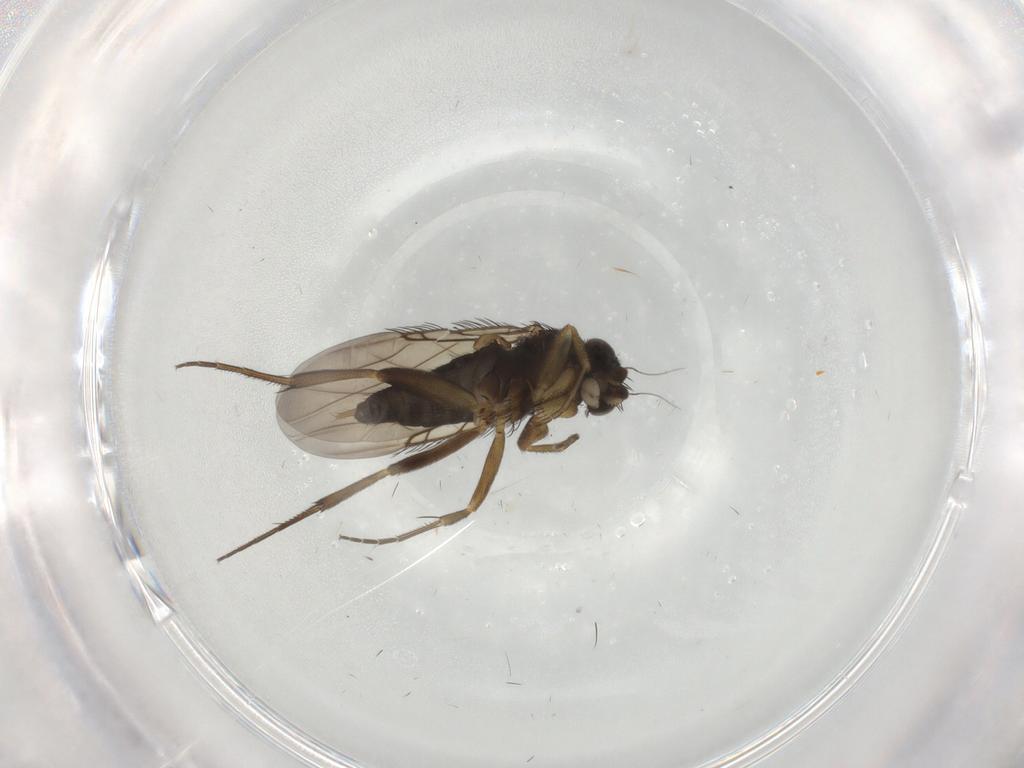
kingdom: Animalia
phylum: Arthropoda
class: Insecta
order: Diptera
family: Phoridae
